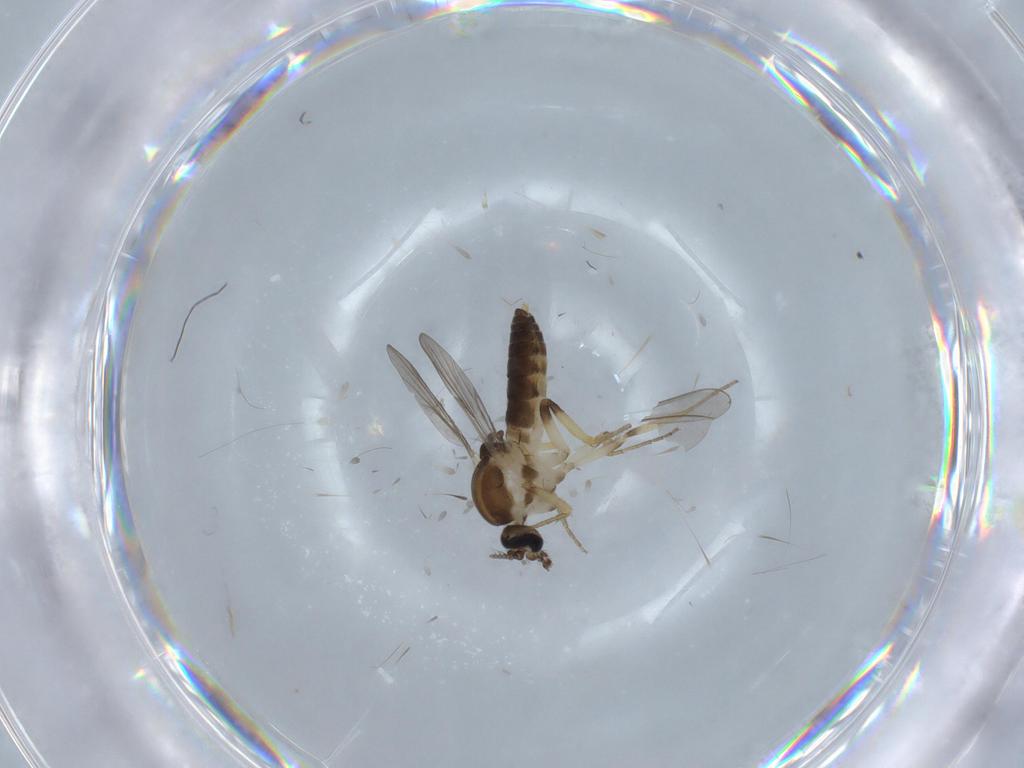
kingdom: Animalia
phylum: Arthropoda
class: Insecta
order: Diptera
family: Ceratopogonidae
